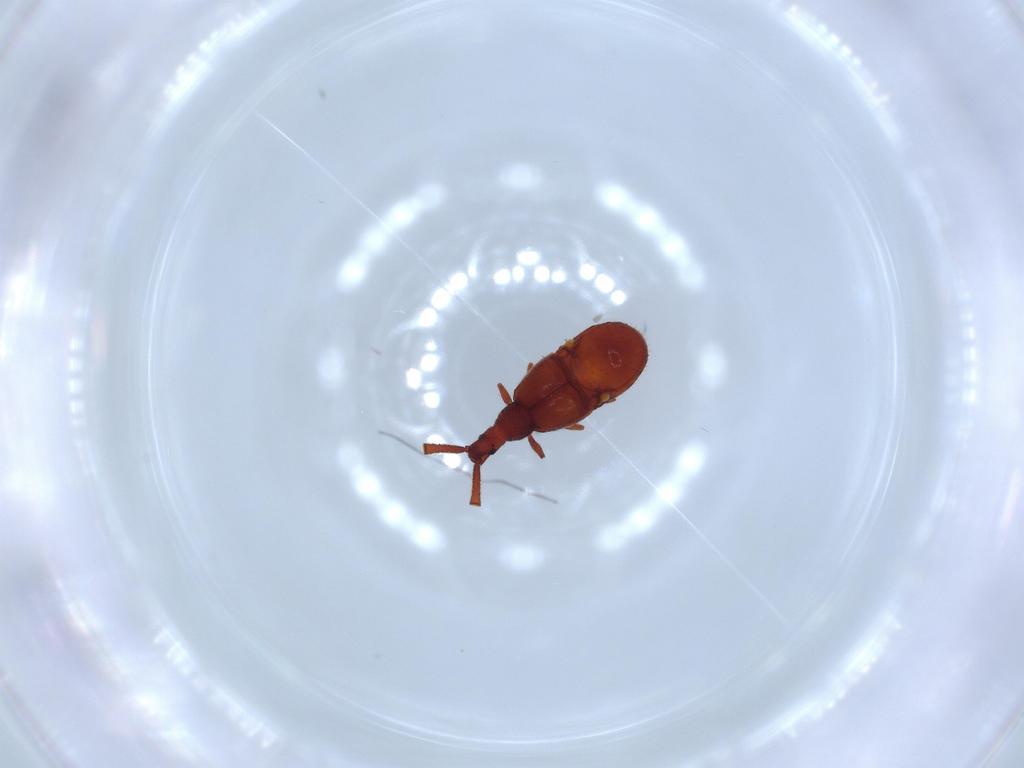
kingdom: Animalia
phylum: Arthropoda
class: Insecta
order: Coleoptera
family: Staphylinidae
